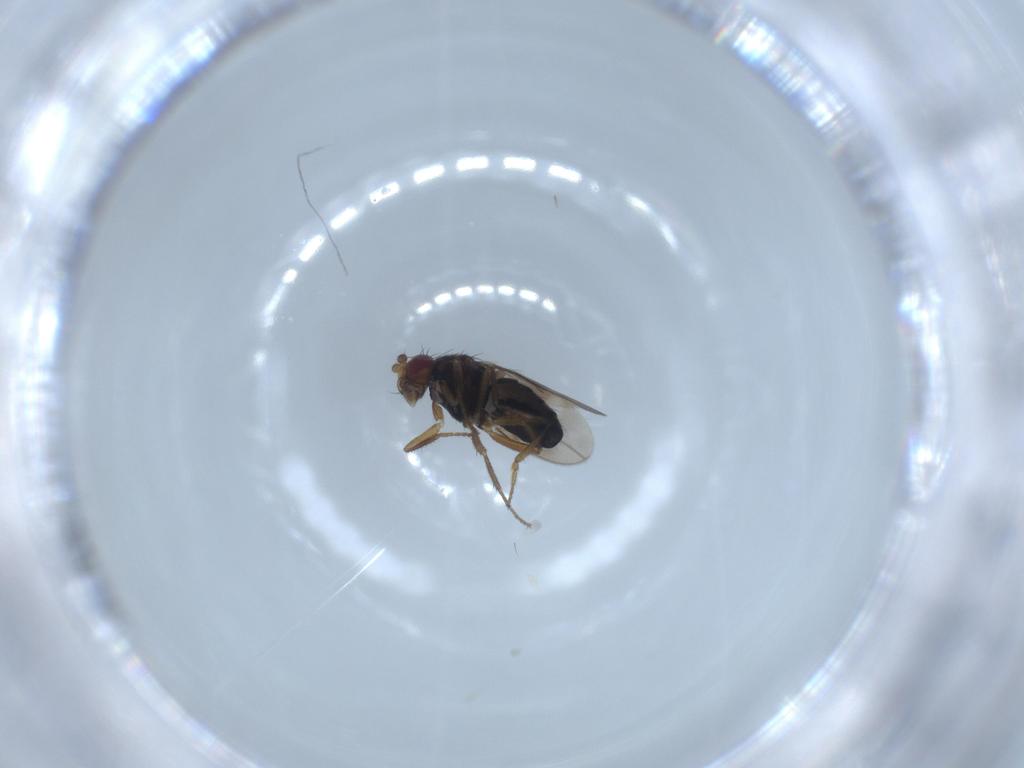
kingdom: Animalia
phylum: Arthropoda
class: Insecta
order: Diptera
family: Sphaeroceridae
